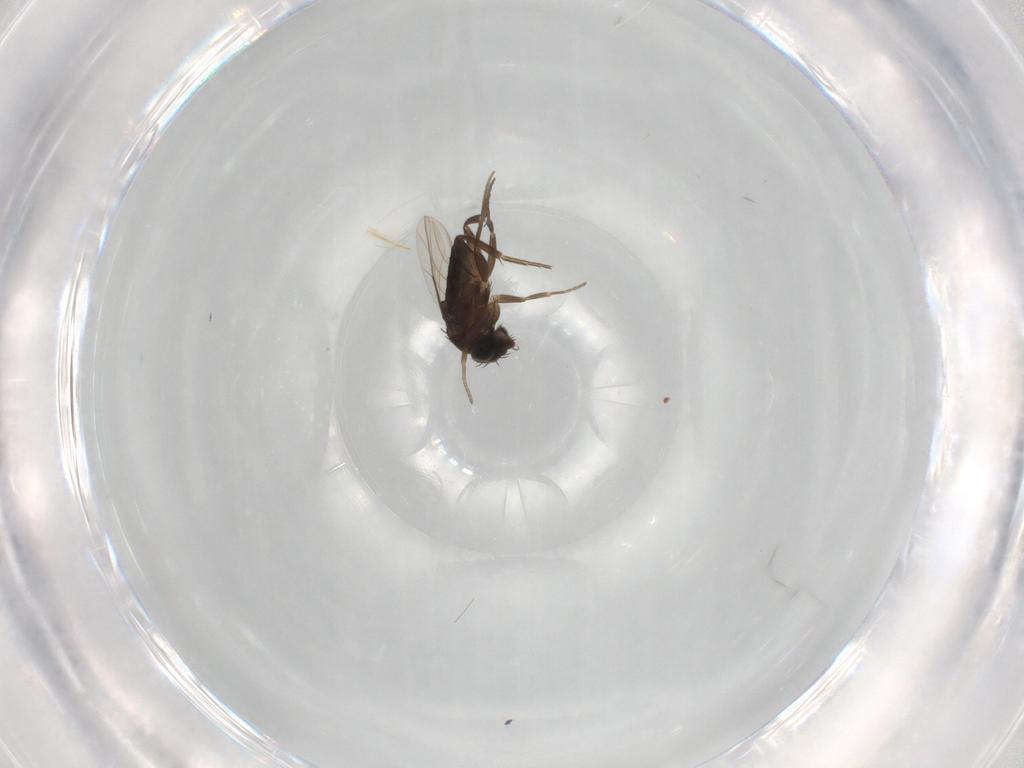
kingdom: Animalia
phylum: Arthropoda
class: Insecta
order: Diptera
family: Phoridae
